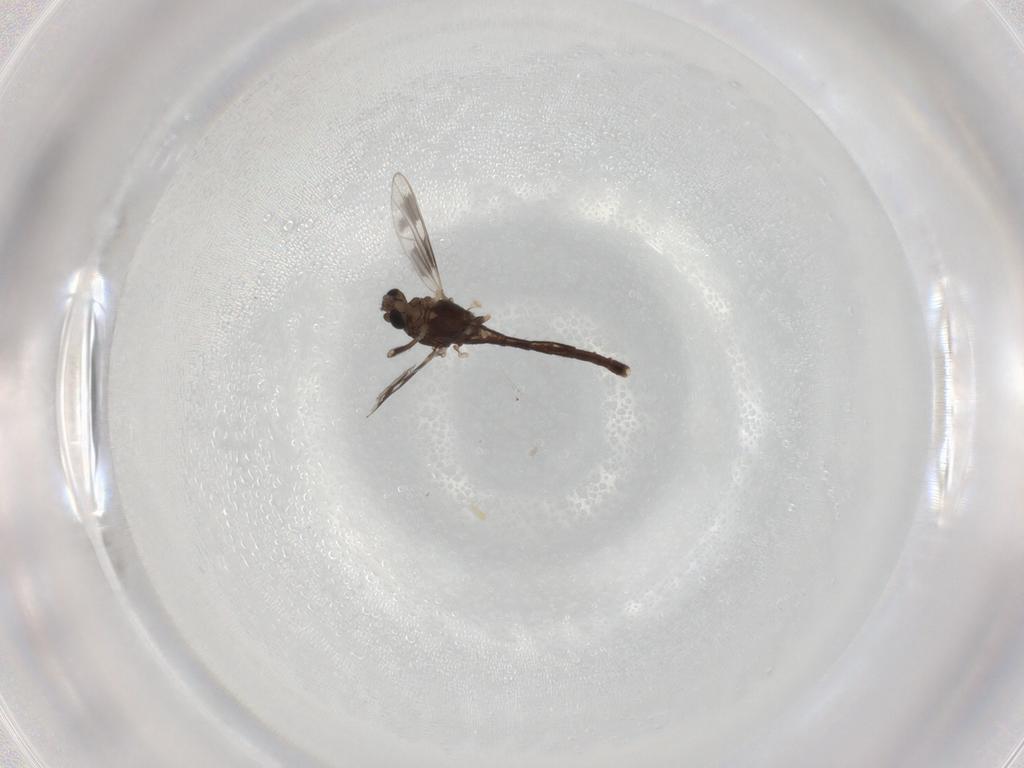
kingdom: Animalia
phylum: Arthropoda
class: Insecta
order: Diptera
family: Chironomidae
